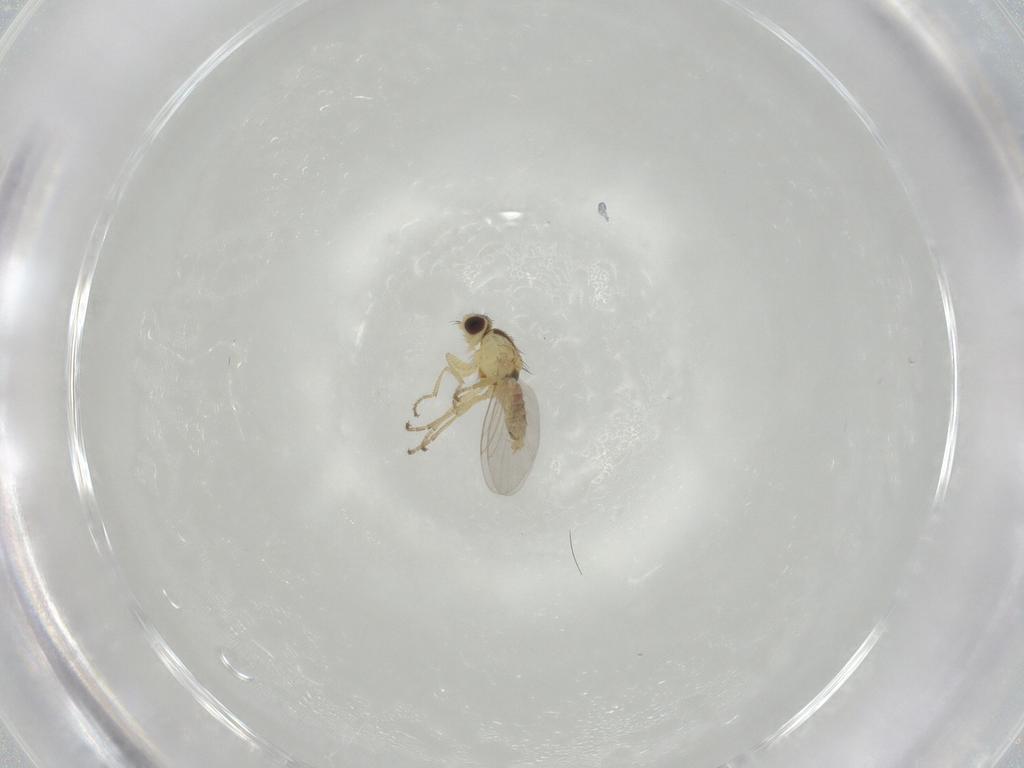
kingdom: Animalia
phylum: Arthropoda
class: Insecta
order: Diptera
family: Agromyzidae
